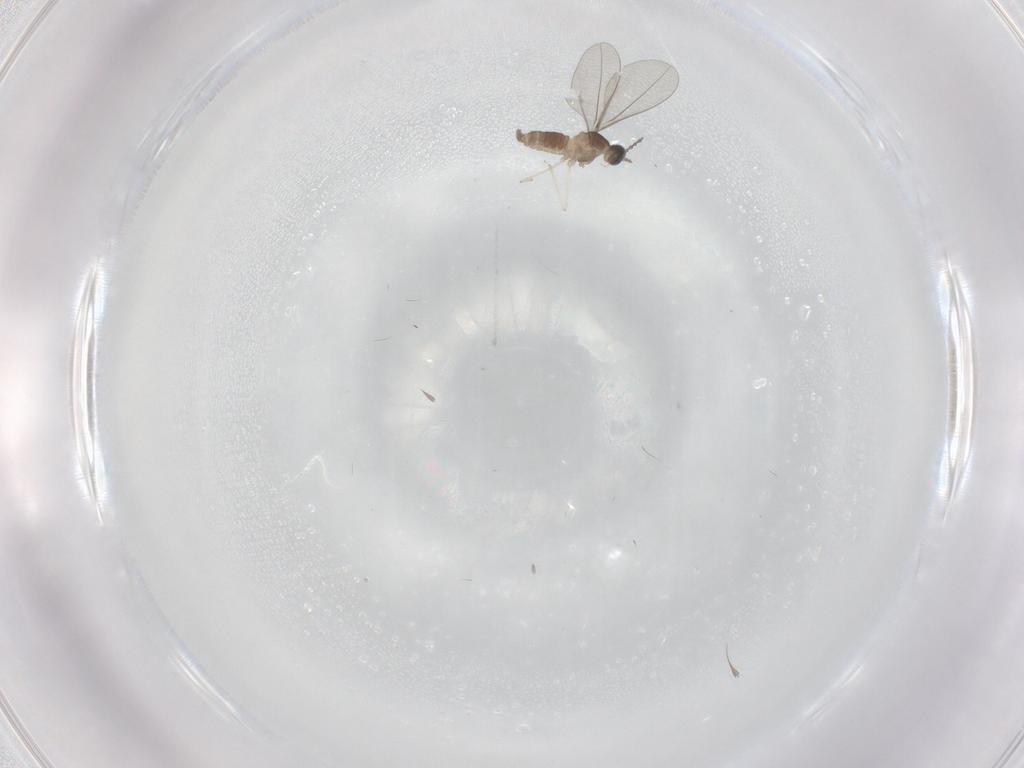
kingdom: Animalia
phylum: Arthropoda
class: Insecta
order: Diptera
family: Cecidomyiidae
